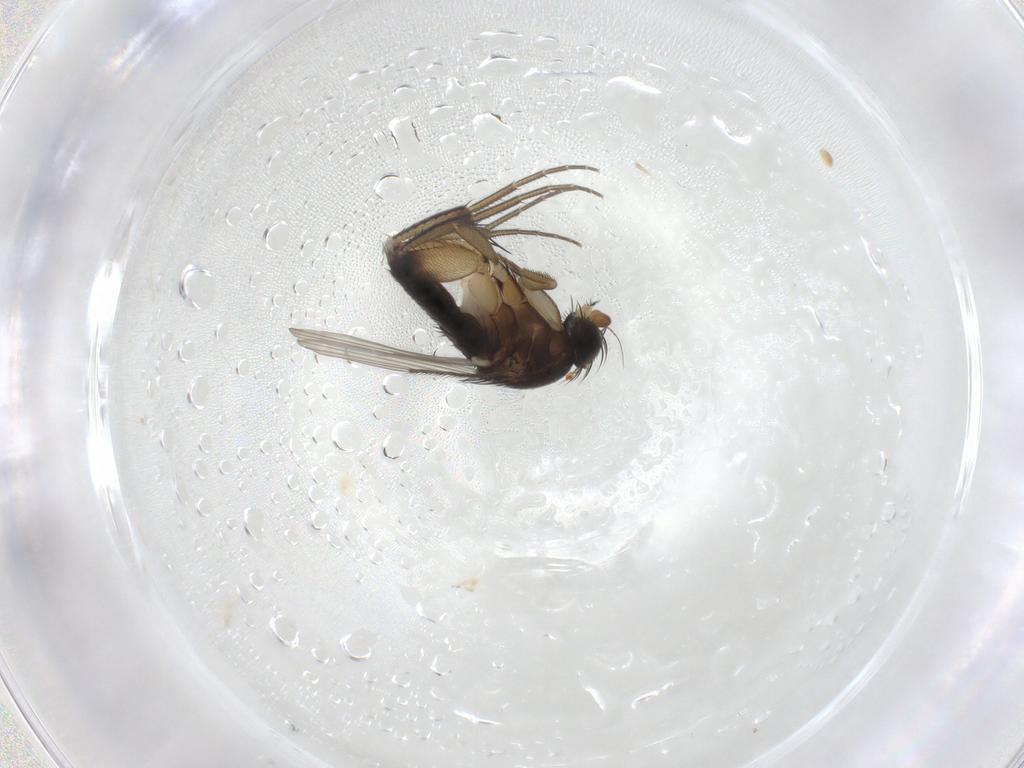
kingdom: Animalia
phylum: Arthropoda
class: Insecta
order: Diptera
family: Phoridae
